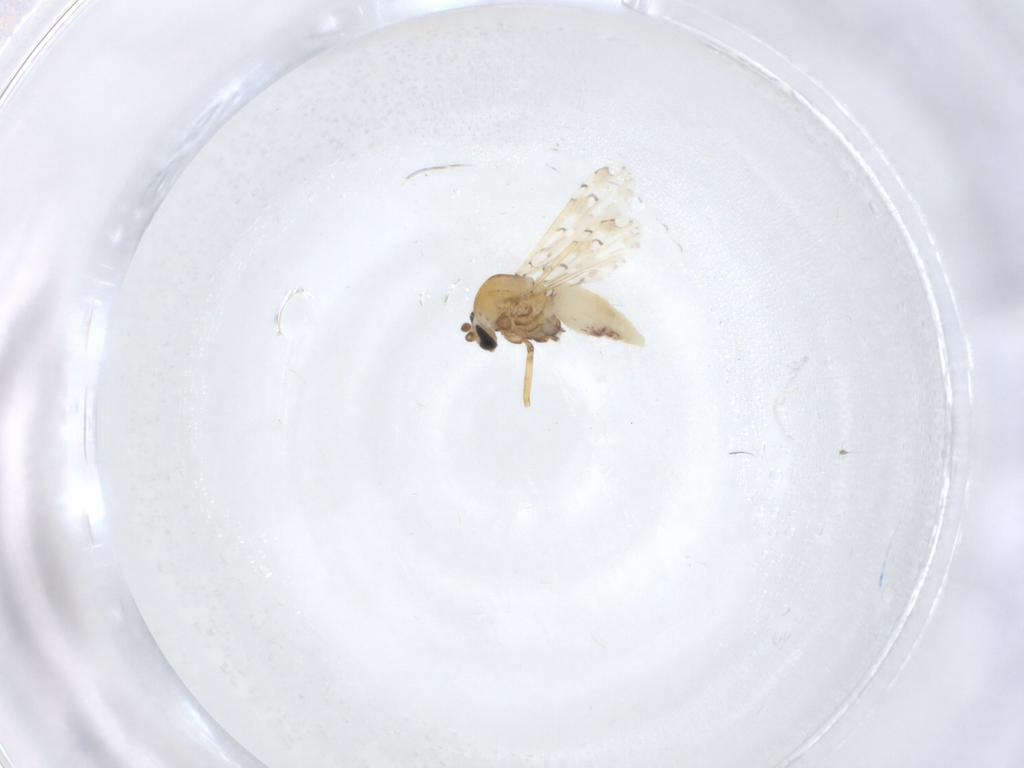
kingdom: Animalia
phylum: Arthropoda
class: Insecta
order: Diptera
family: Ceratopogonidae
